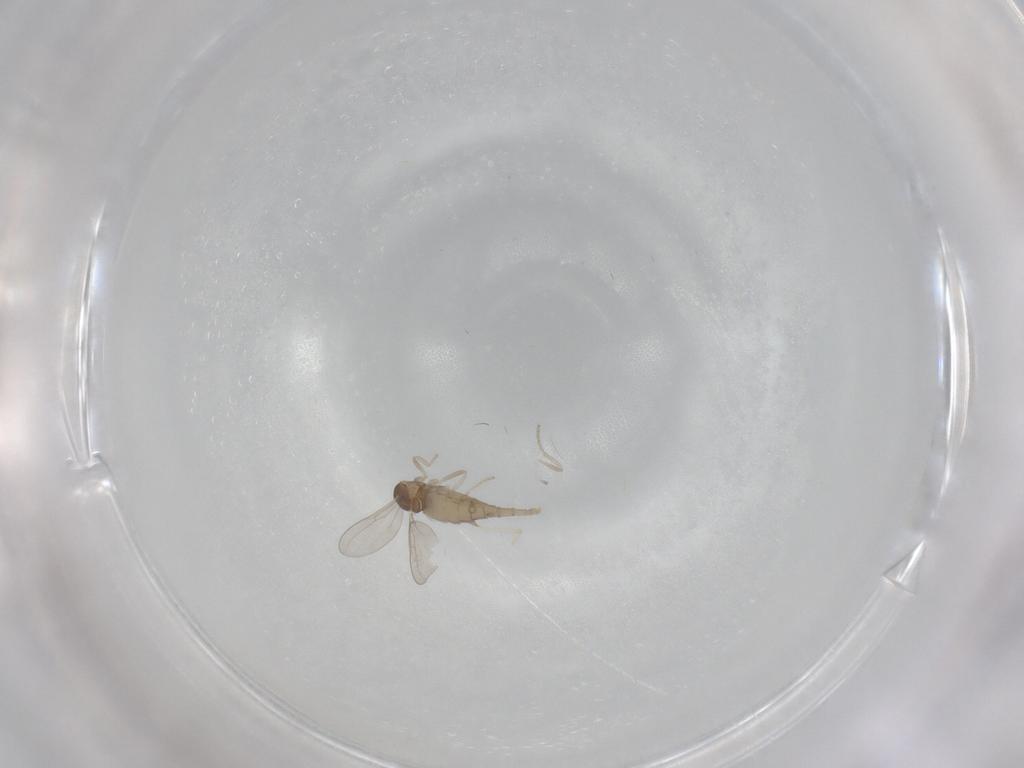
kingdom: Animalia
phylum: Arthropoda
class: Insecta
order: Diptera
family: Cecidomyiidae
